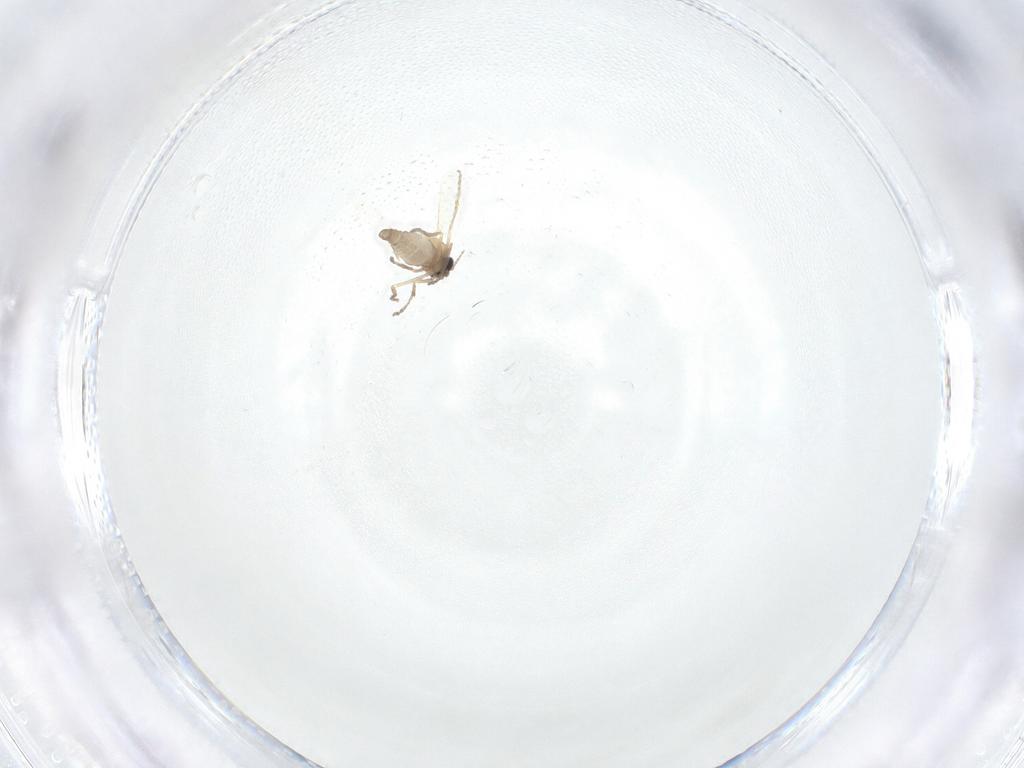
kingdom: Animalia
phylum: Arthropoda
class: Insecta
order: Diptera
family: Ceratopogonidae
